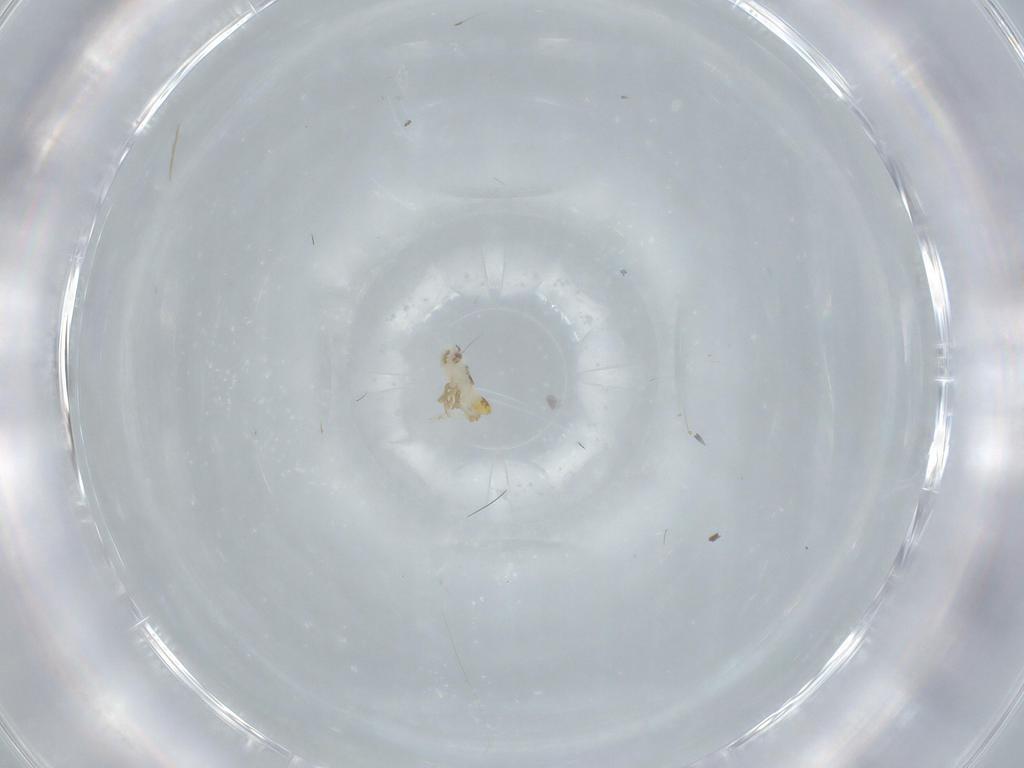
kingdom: Animalia
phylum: Arthropoda
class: Insecta
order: Hemiptera
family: Delphacidae
